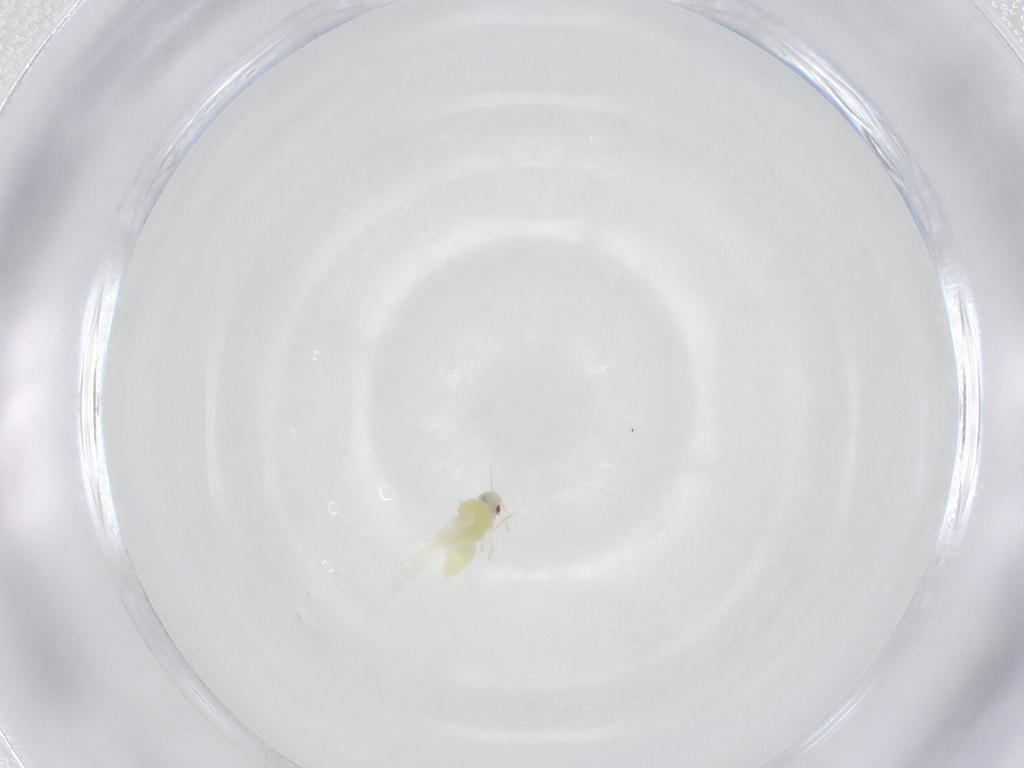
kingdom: Animalia
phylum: Arthropoda
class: Insecta
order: Hemiptera
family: Aleyrodidae
